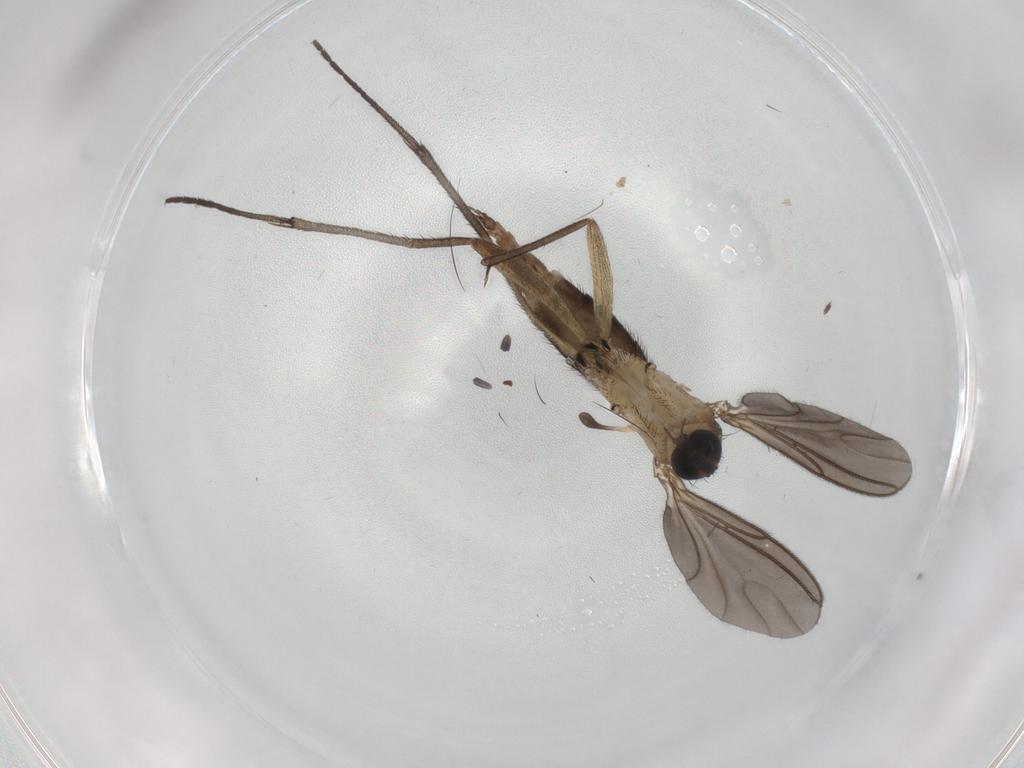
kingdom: Animalia
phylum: Arthropoda
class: Insecta
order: Diptera
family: Sciaridae
